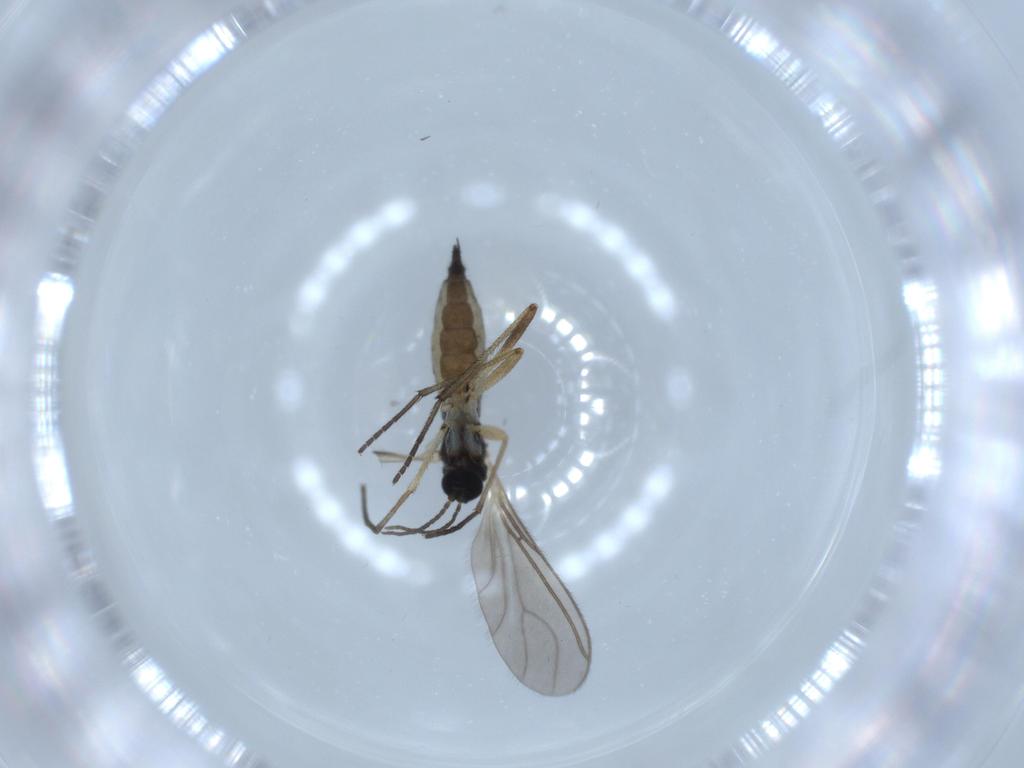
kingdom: Animalia
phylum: Arthropoda
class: Insecta
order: Diptera
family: Sciaridae
